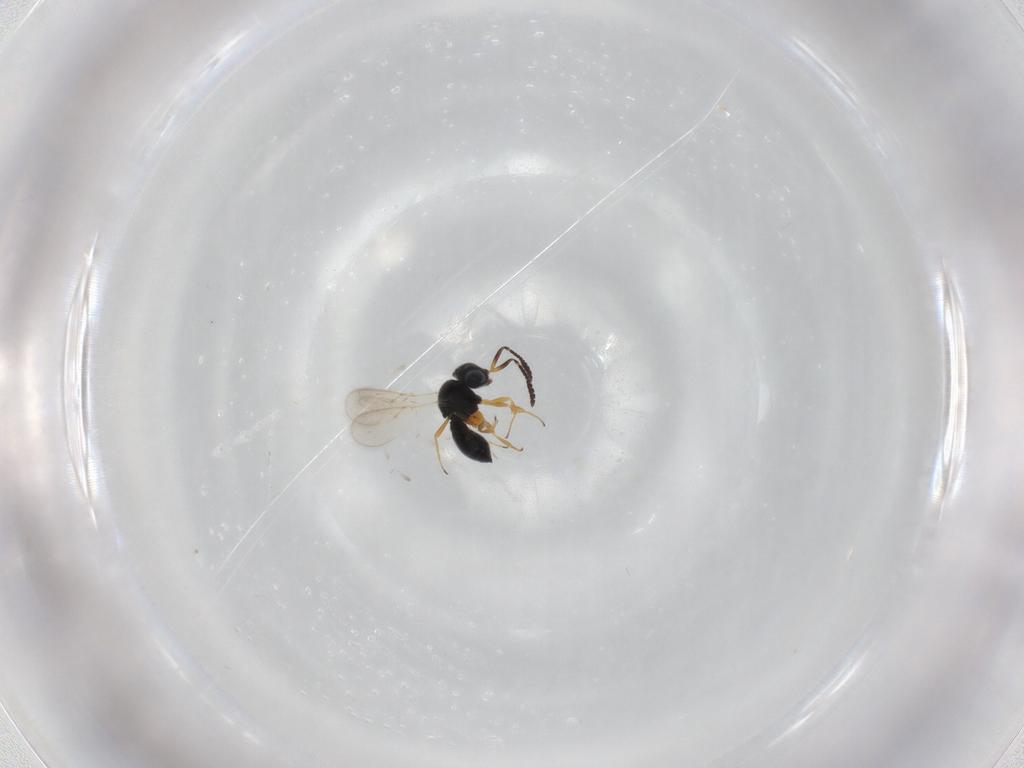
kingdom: Animalia
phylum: Arthropoda
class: Insecta
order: Hymenoptera
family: Scelionidae
